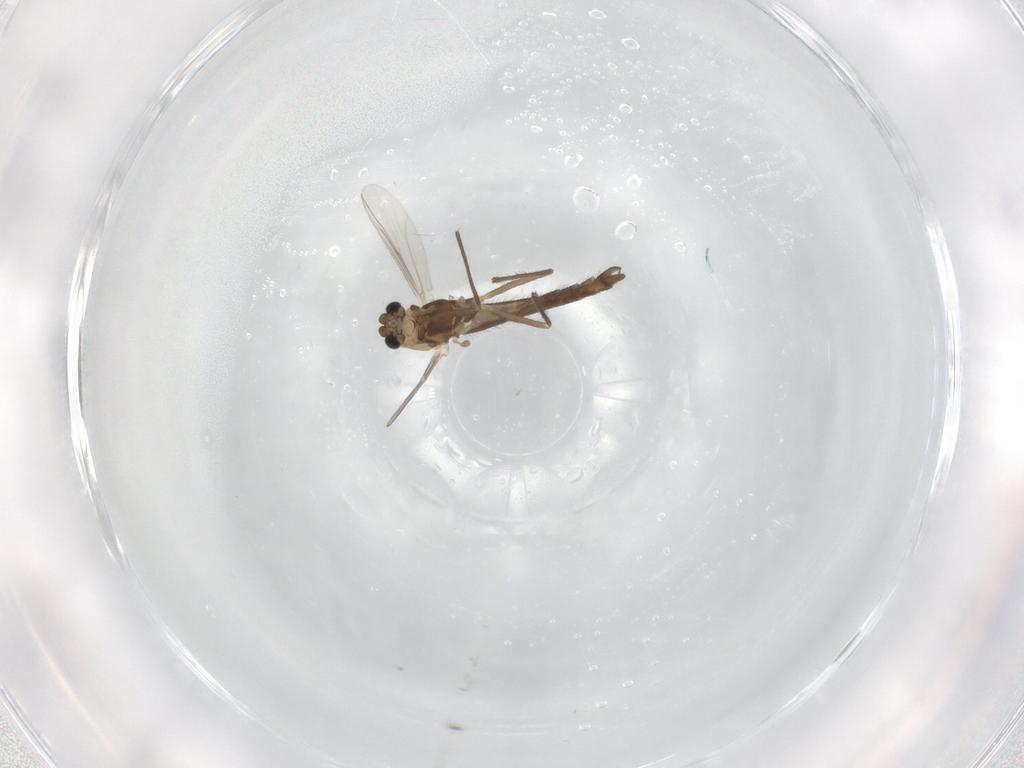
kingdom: Animalia
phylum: Arthropoda
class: Insecta
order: Diptera
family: Chironomidae
